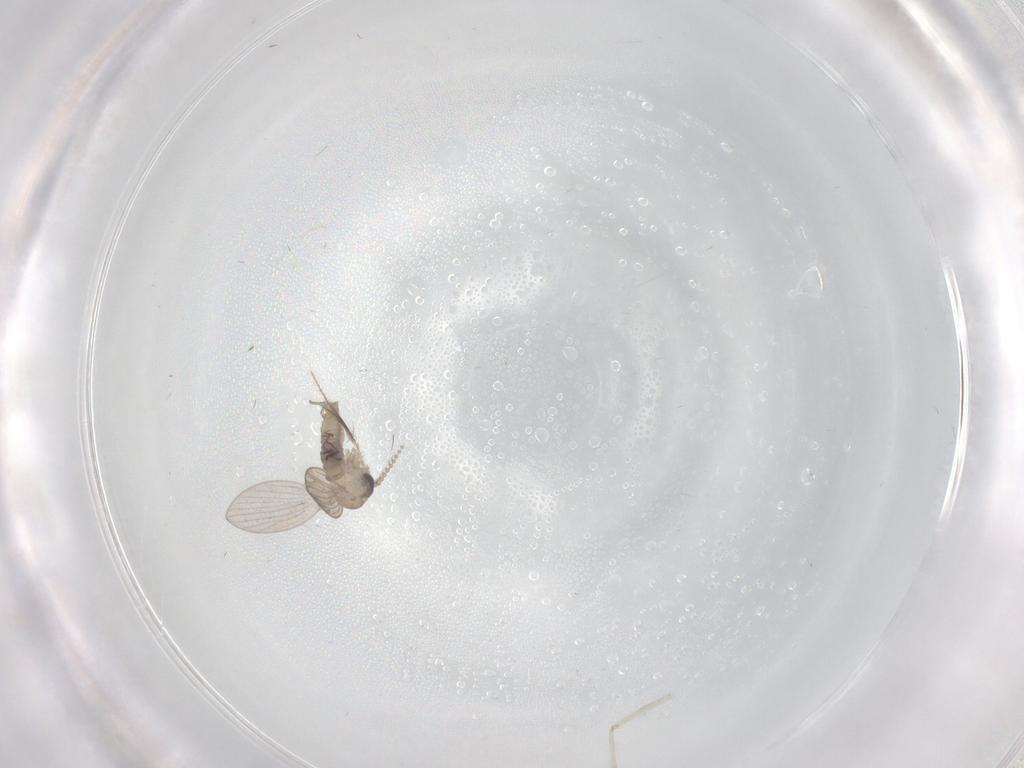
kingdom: Animalia
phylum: Arthropoda
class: Insecta
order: Diptera
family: Psychodidae
